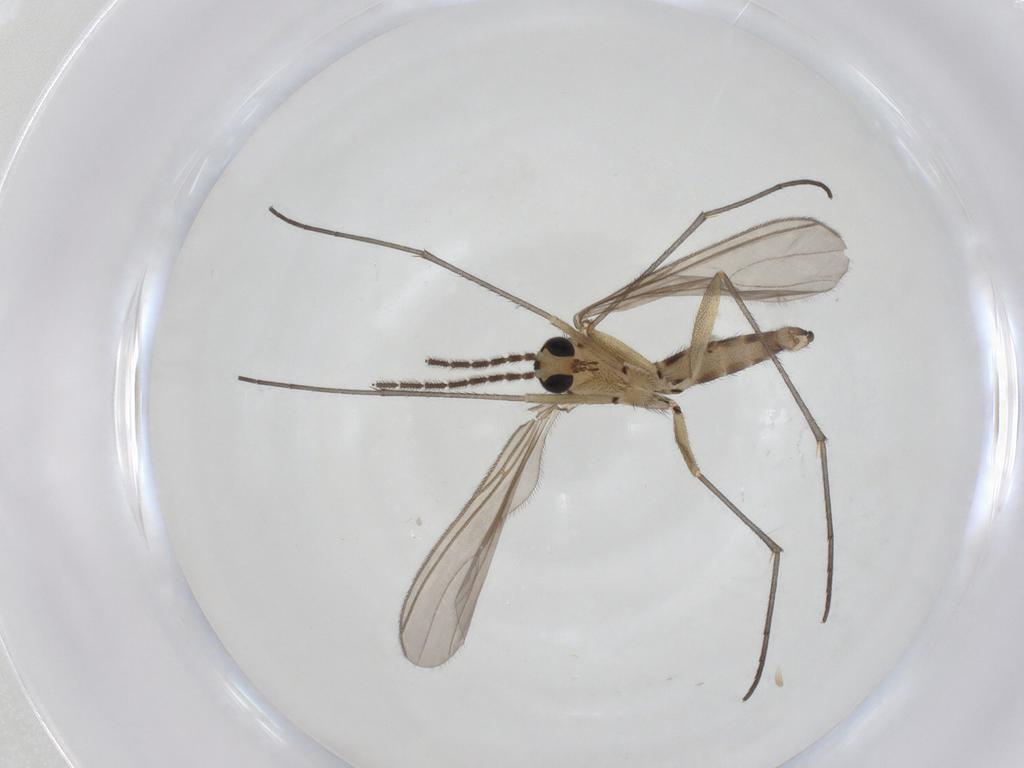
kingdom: Animalia
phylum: Arthropoda
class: Insecta
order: Diptera
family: Sciaridae
